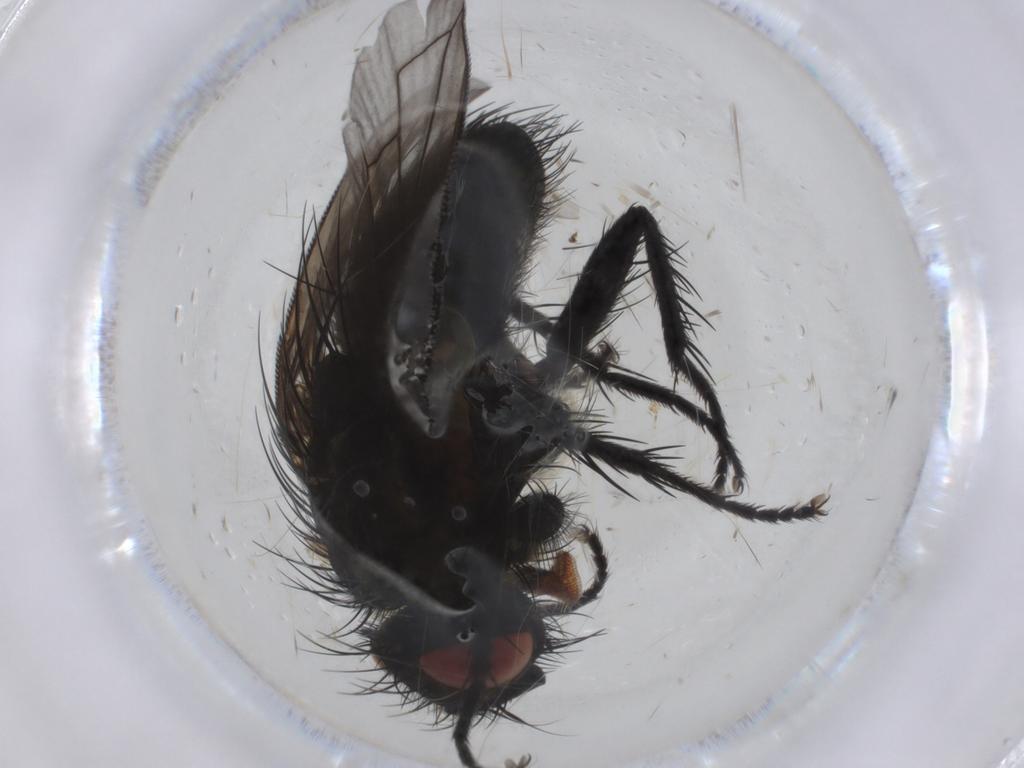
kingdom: Animalia
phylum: Arthropoda
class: Insecta
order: Diptera
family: Tachinidae
